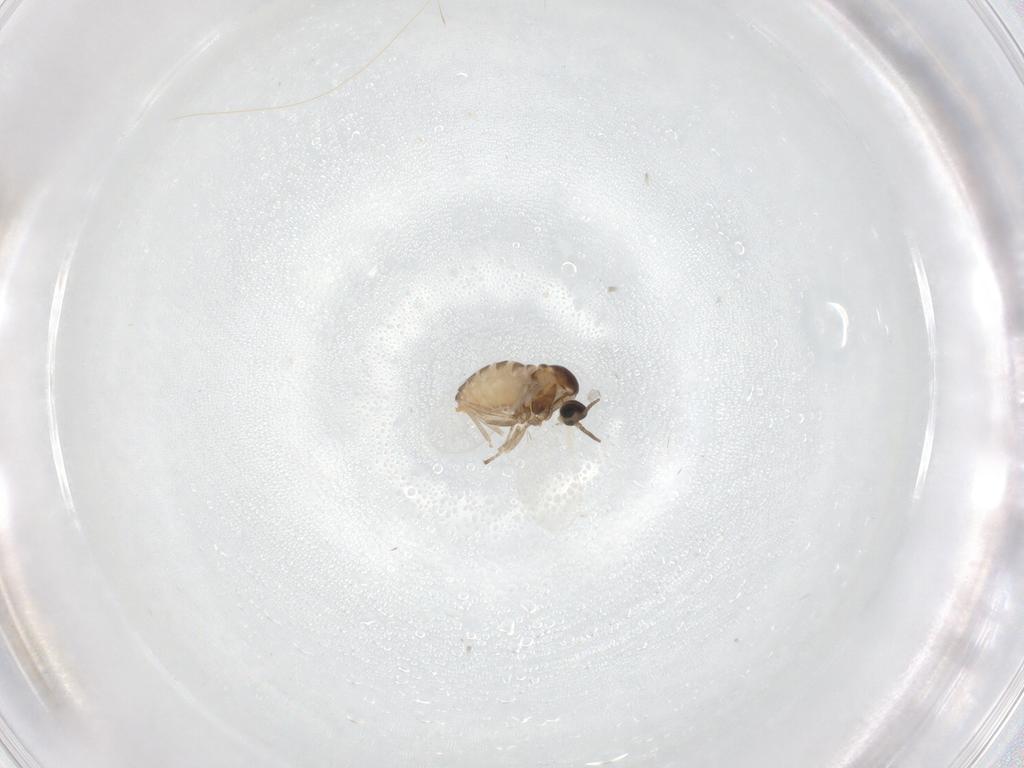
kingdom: Animalia
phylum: Arthropoda
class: Insecta
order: Diptera
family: Cecidomyiidae
